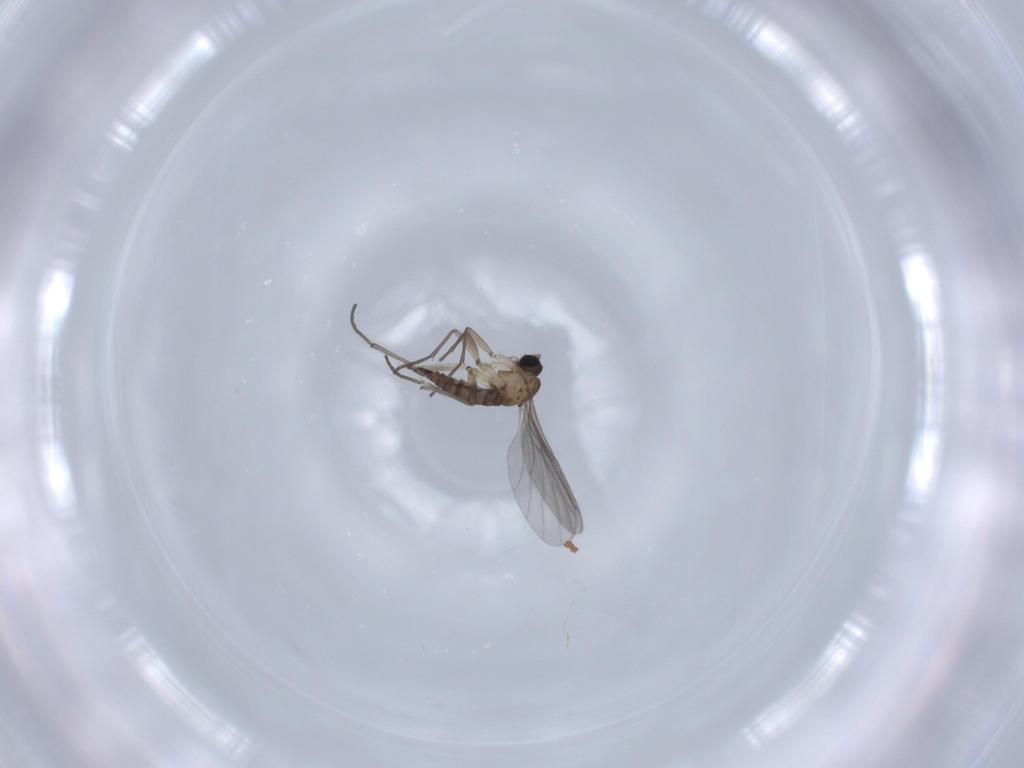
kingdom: Animalia
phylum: Arthropoda
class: Insecta
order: Diptera
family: Sciaridae
